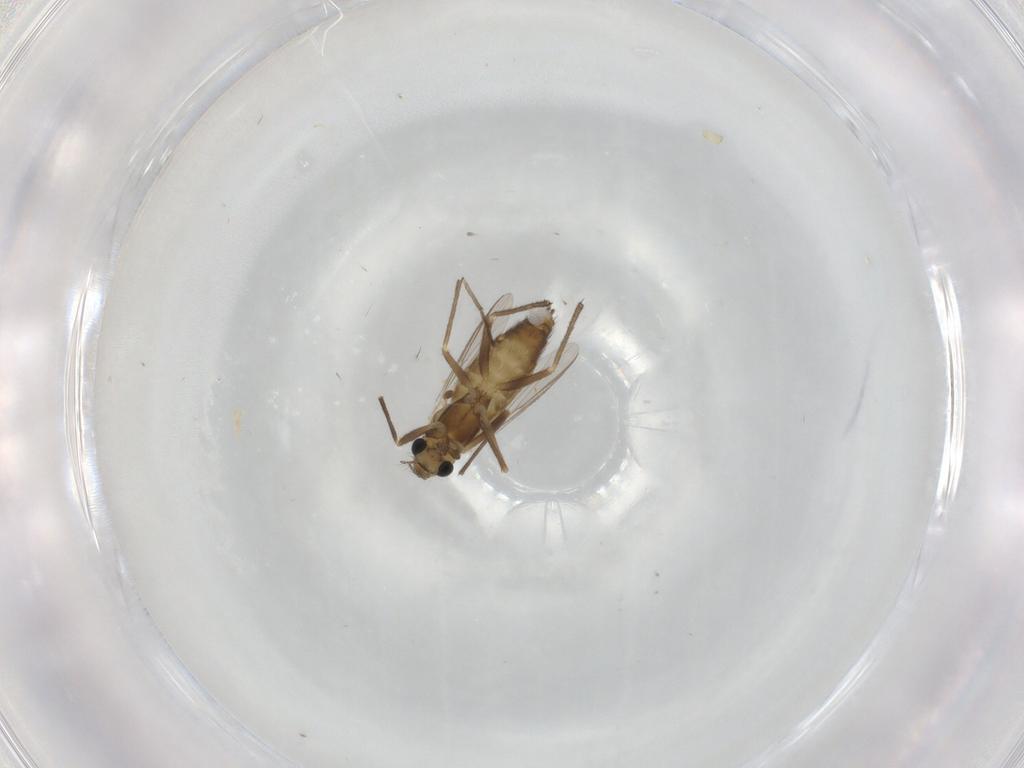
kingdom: Animalia
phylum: Arthropoda
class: Insecta
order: Diptera
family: Chironomidae
